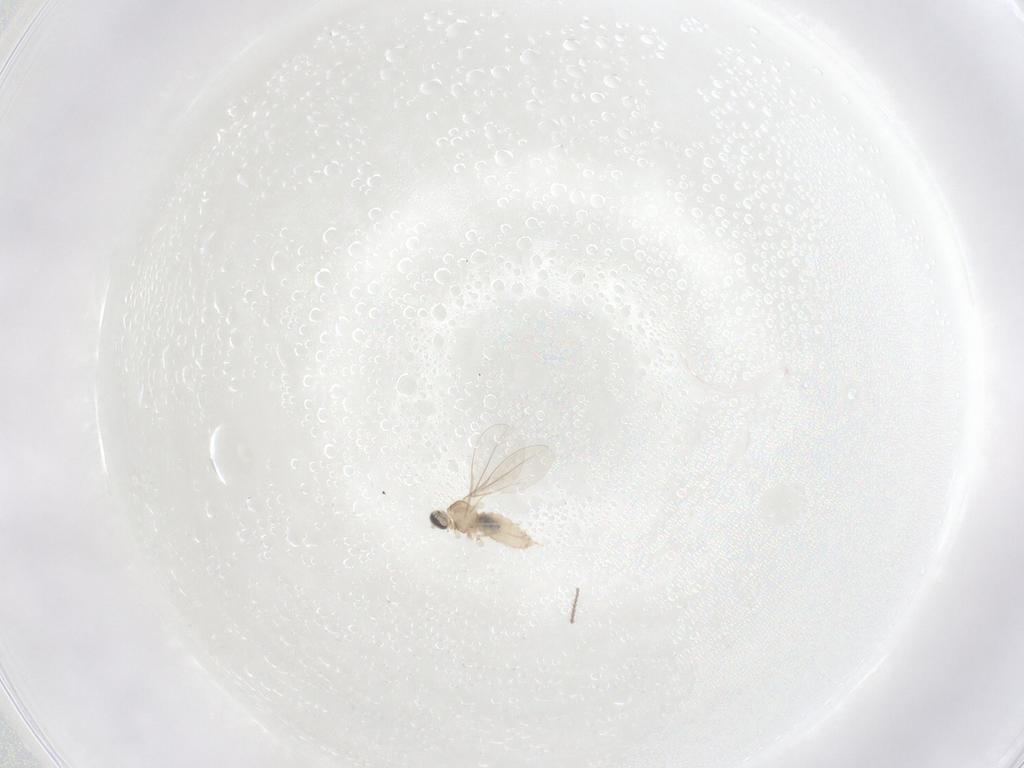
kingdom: Animalia
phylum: Arthropoda
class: Insecta
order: Diptera
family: Cecidomyiidae
